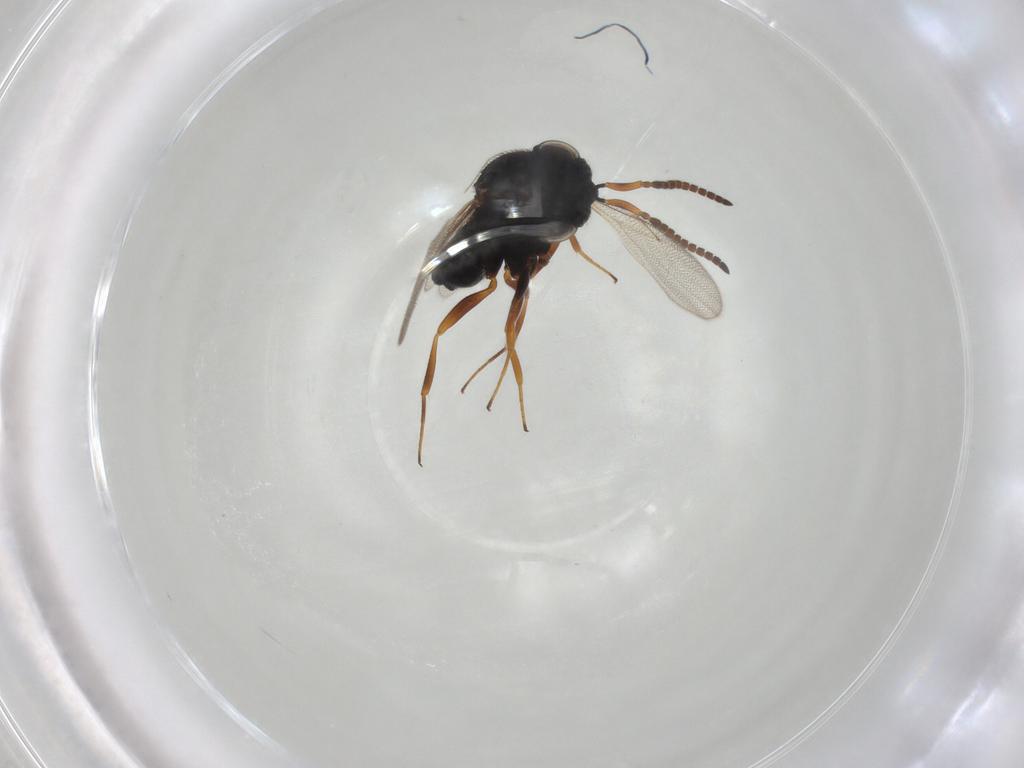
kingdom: Animalia
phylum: Arthropoda
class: Insecta
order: Hymenoptera
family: Scelionidae
